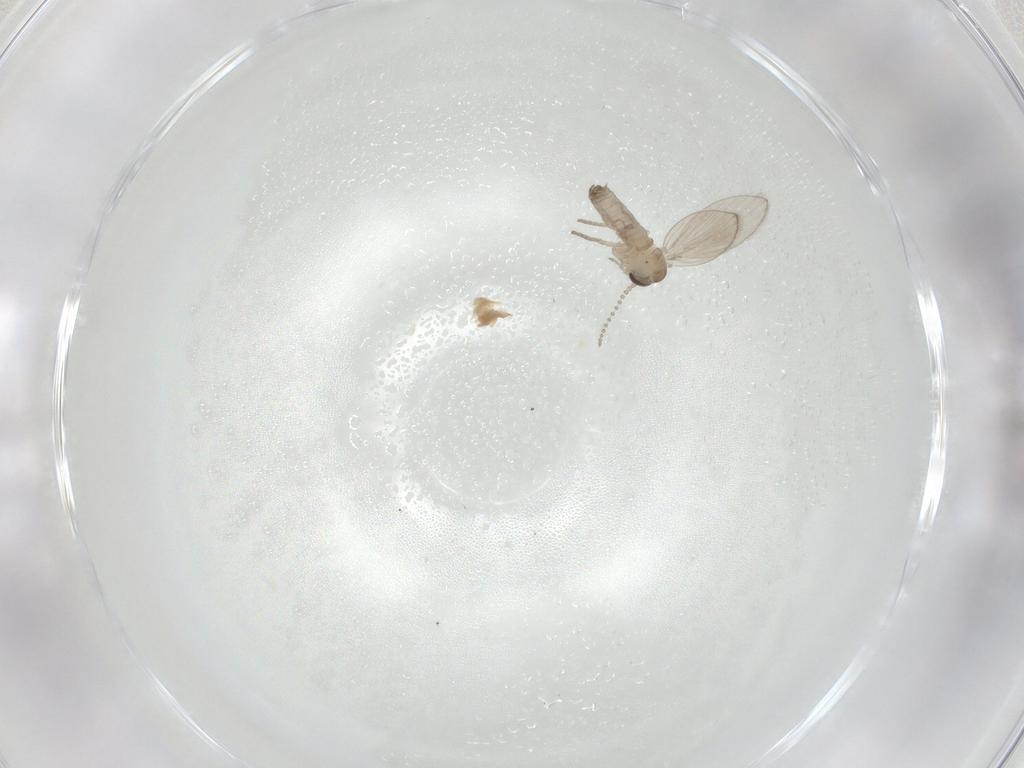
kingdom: Animalia
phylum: Arthropoda
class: Insecta
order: Diptera
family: Psychodidae
